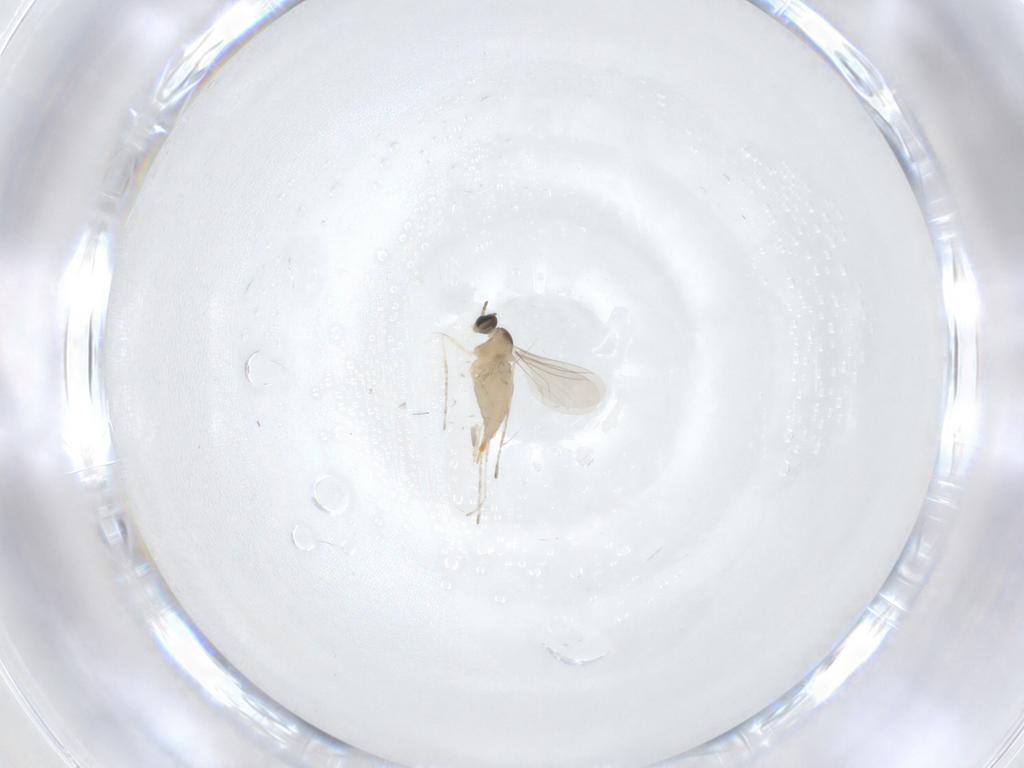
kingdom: Animalia
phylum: Arthropoda
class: Insecta
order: Diptera
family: Cecidomyiidae
